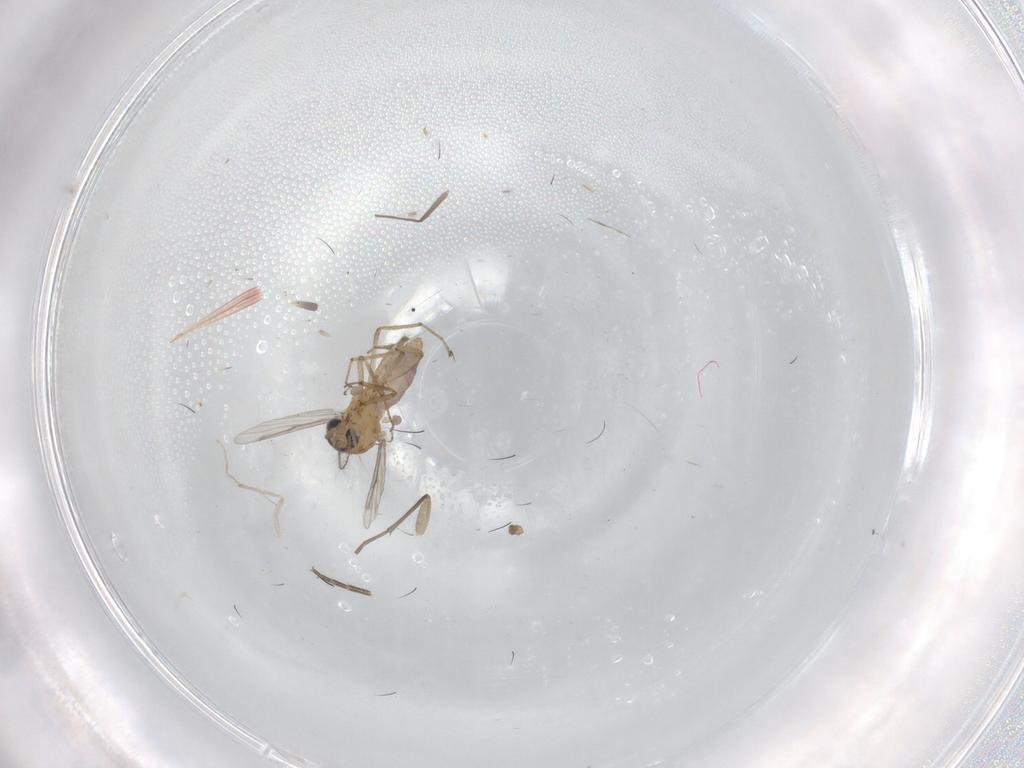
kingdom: Animalia
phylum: Arthropoda
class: Insecta
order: Diptera
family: Sciaridae
